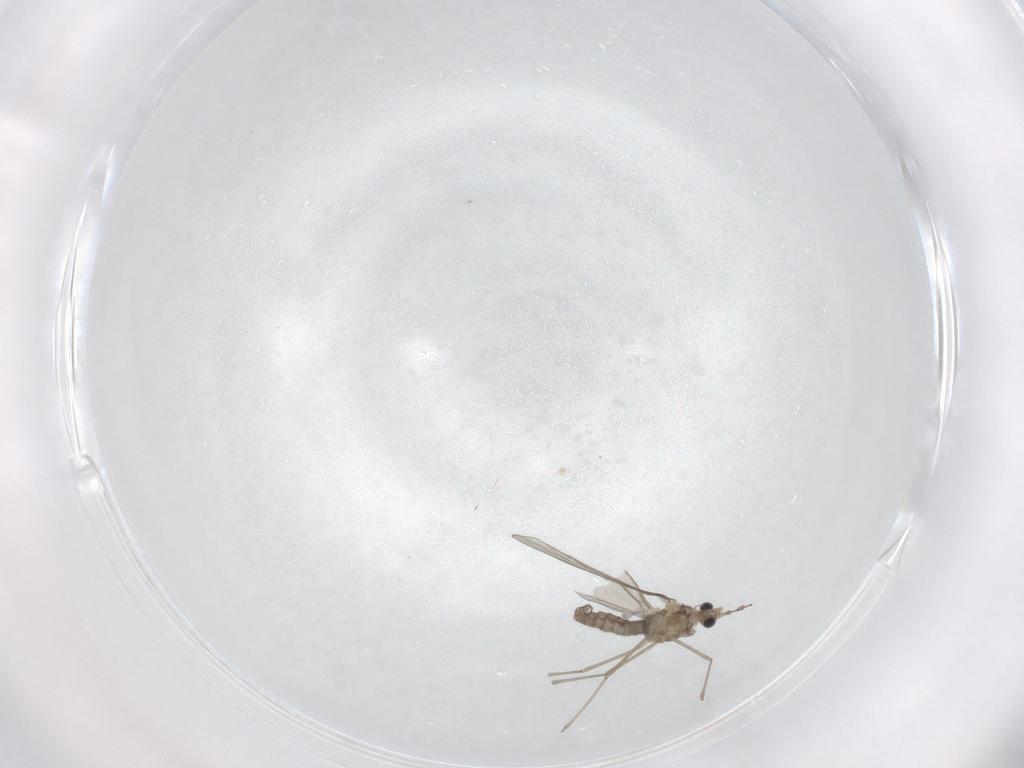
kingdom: Animalia
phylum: Arthropoda
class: Insecta
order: Diptera
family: Cecidomyiidae
